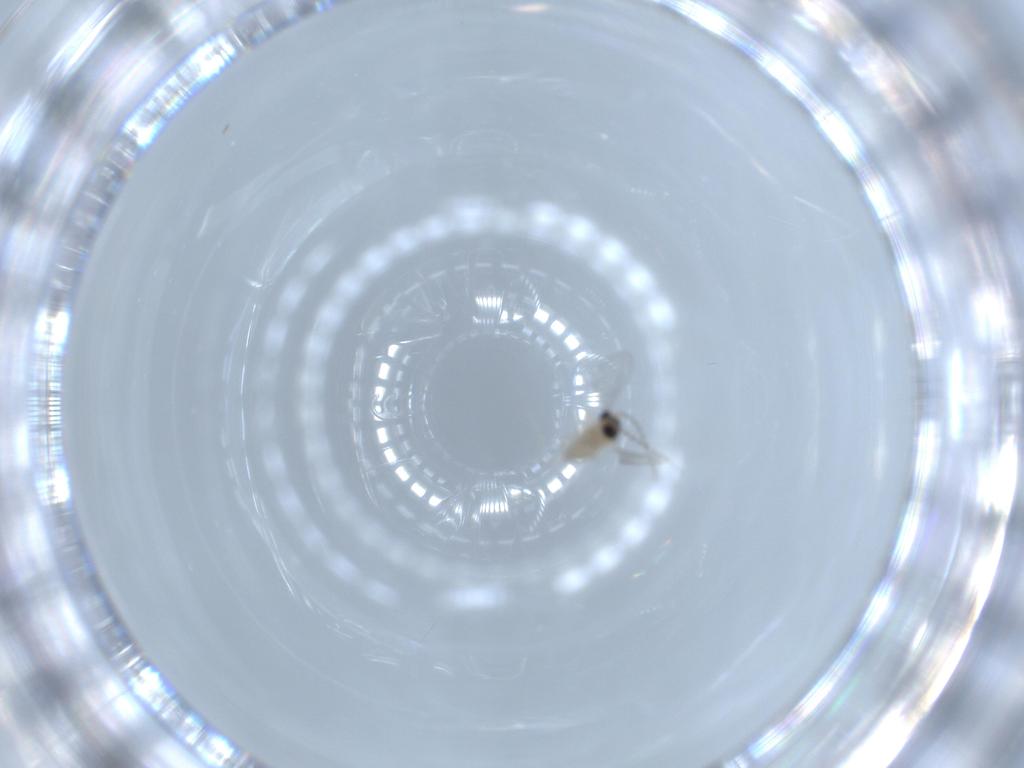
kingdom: Animalia
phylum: Arthropoda
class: Insecta
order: Diptera
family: Cecidomyiidae
